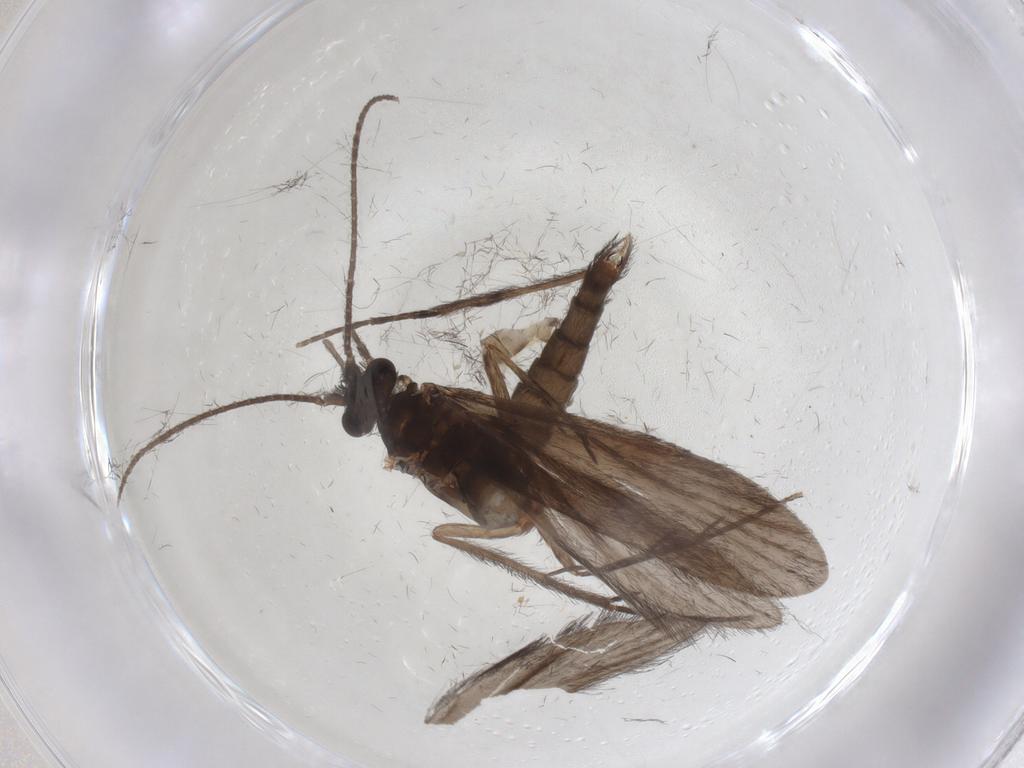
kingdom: Animalia
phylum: Arthropoda
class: Insecta
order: Trichoptera
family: Xiphocentronidae
